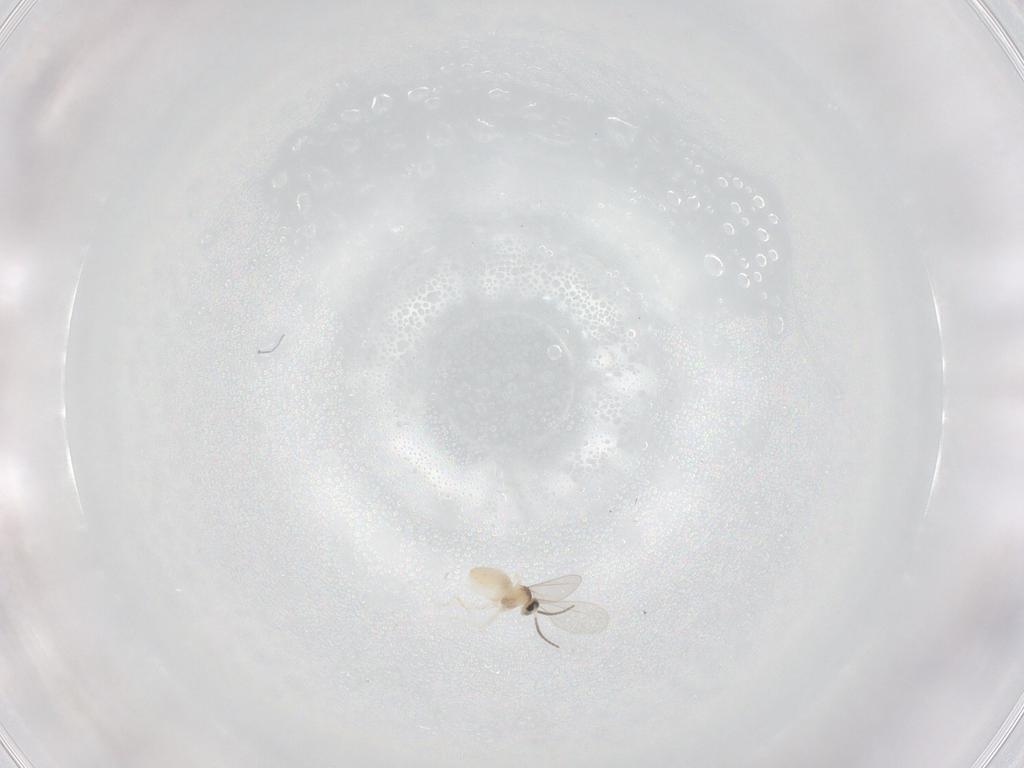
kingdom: Animalia
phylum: Arthropoda
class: Insecta
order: Diptera
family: Cecidomyiidae
